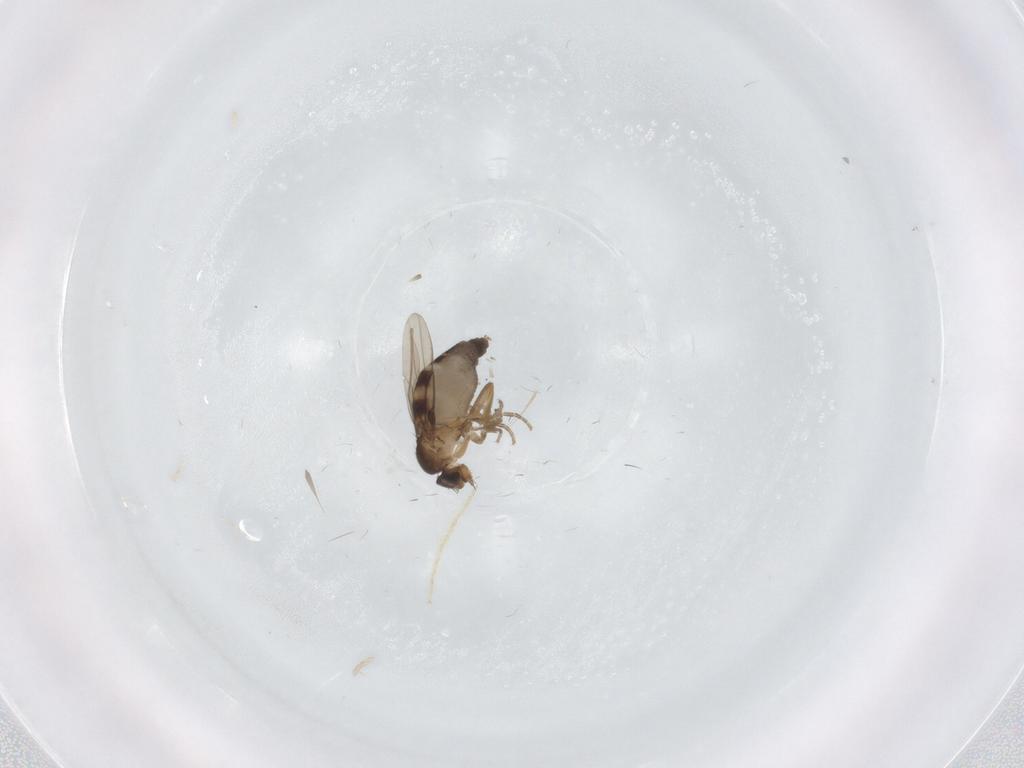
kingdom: Animalia
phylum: Arthropoda
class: Insecta
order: Diptera
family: Chironomidae
